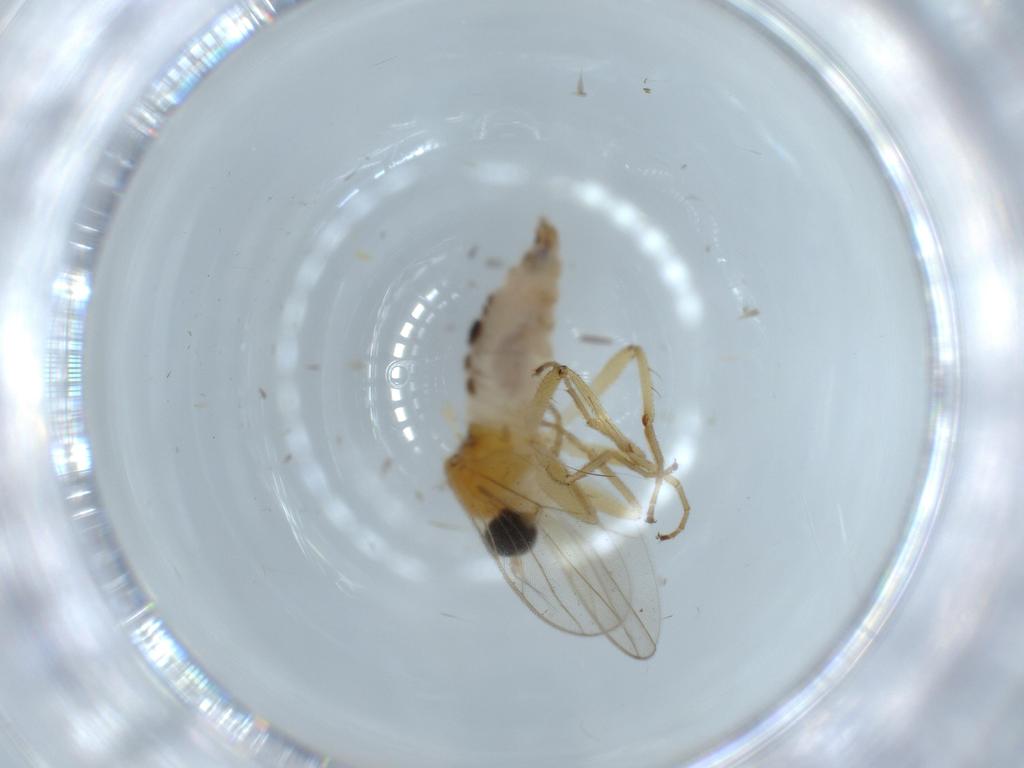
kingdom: Animalia
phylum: Arthropoda
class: Insecta
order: Diptera
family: Hybotidae
